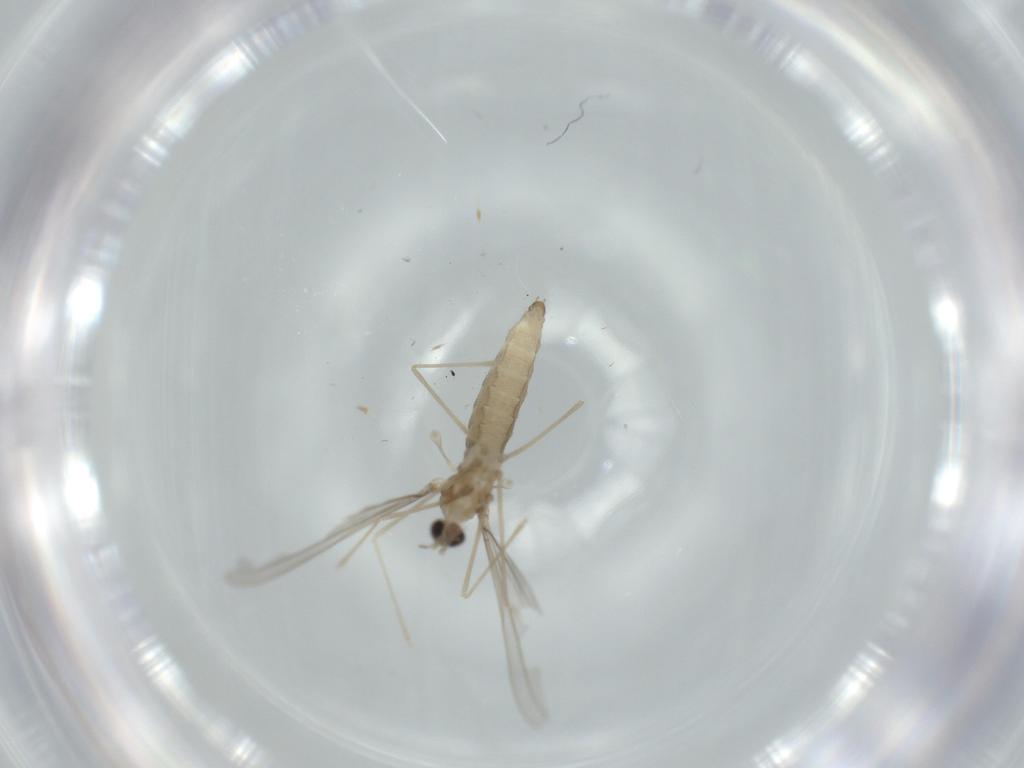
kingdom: Animalia
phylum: Arthropoda
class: Insecta
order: Diptera
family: Cecidomyiidae
